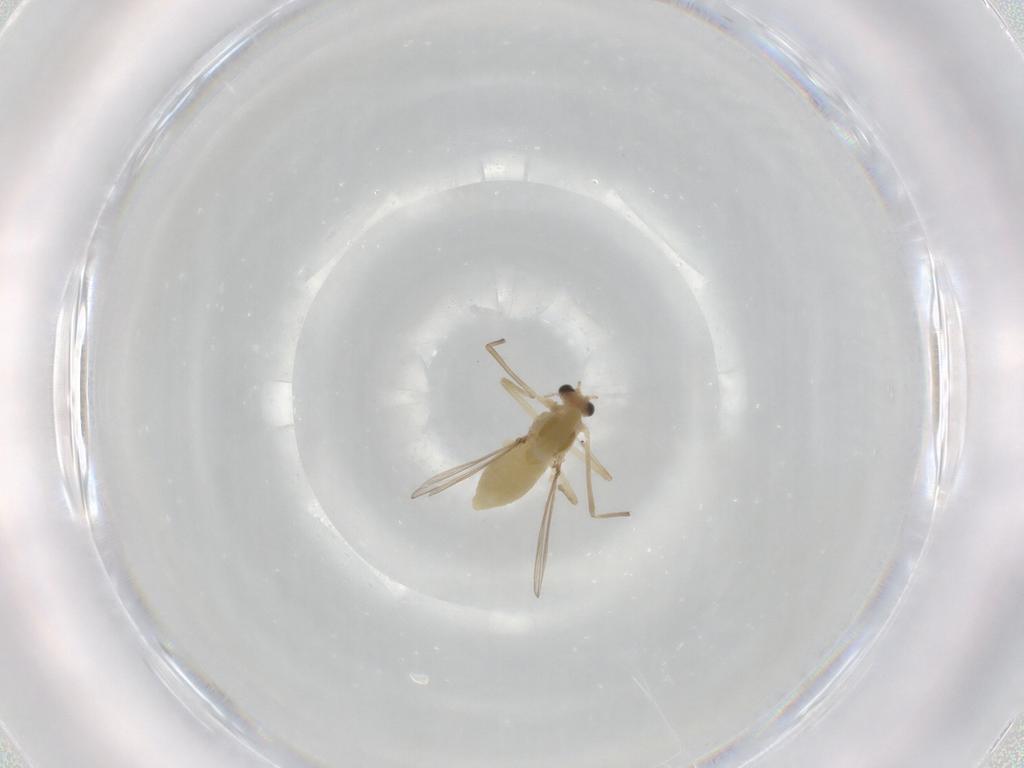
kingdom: Animalia
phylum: Arthropoda
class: Insecta
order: Diptera
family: Chironomidae
